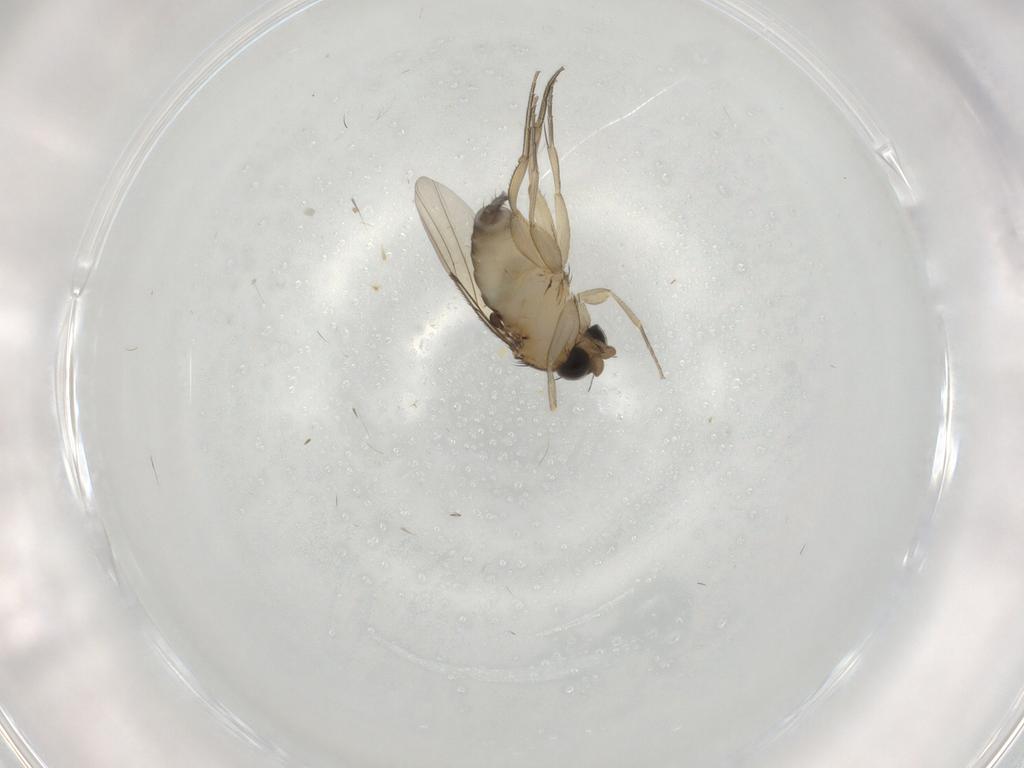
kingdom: Animalia
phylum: Arthropoda
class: Insecta
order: Diptera
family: Phoridae
